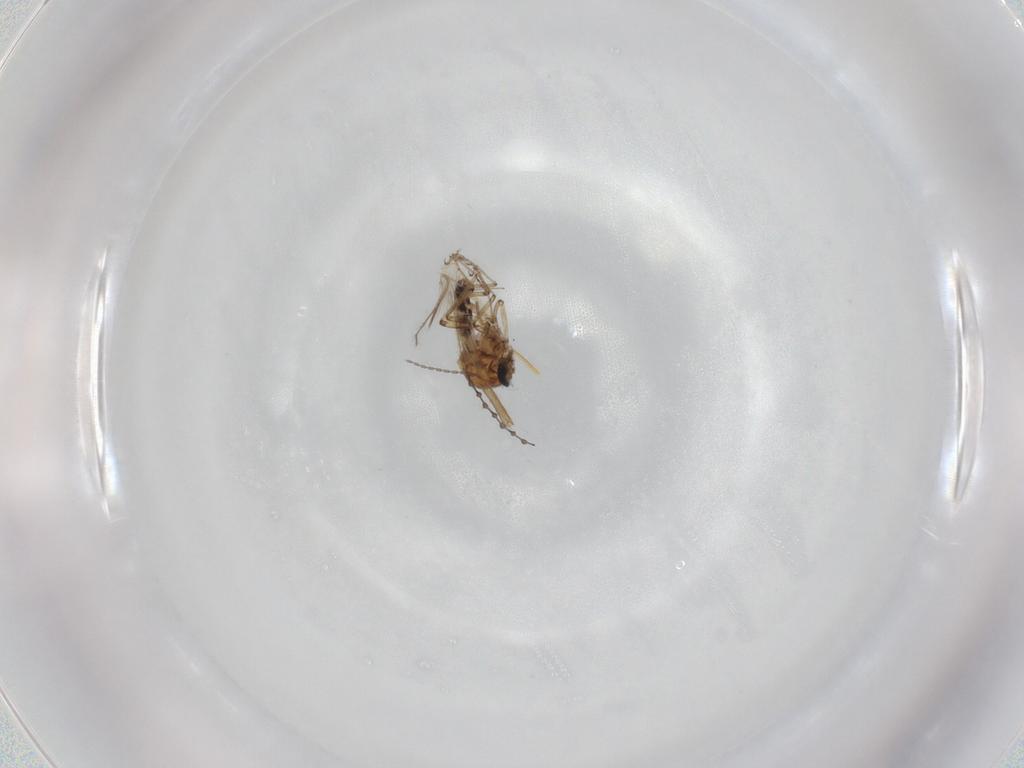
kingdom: Animalia
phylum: Arthropoda
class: Insecta
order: Diptera
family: Ceratopogonidae
